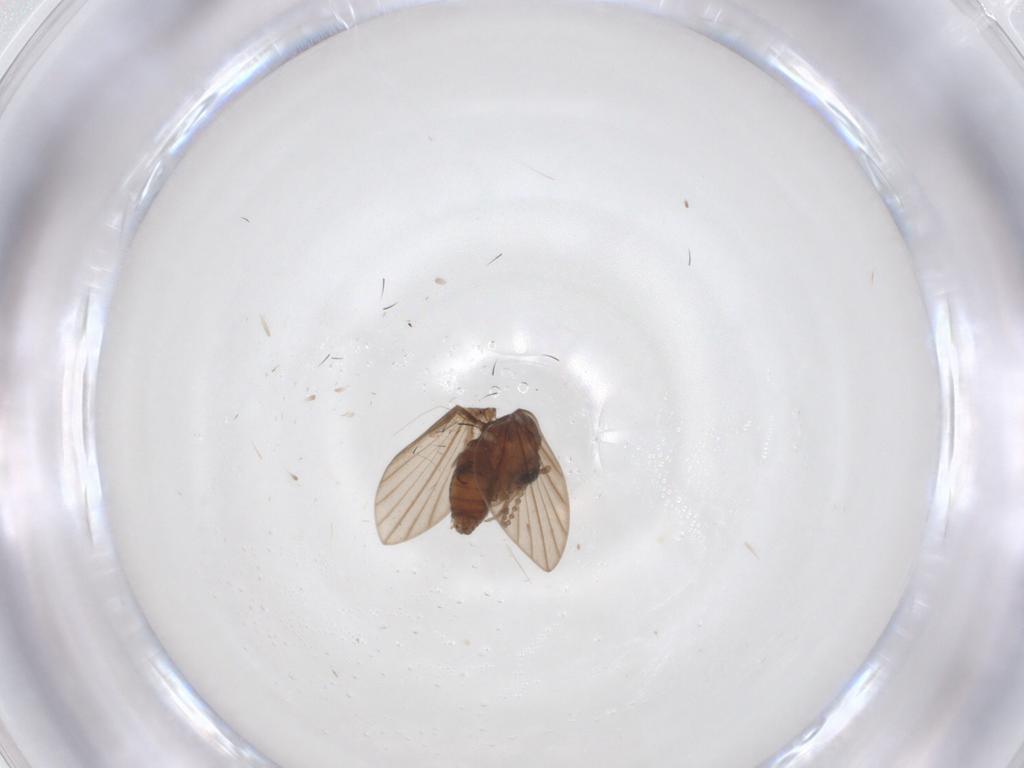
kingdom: Animalia
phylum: Arthropoda
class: Insecta
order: Diptera
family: Psychodidae
